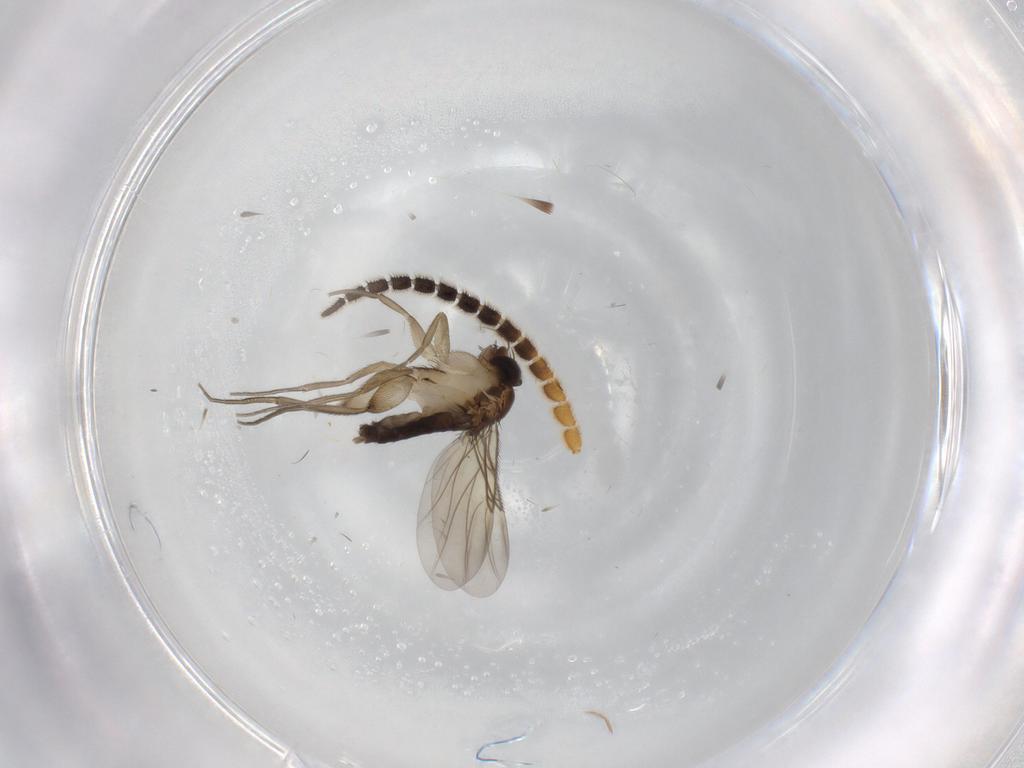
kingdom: Animalia
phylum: Arthropoda
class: Insecta
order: Diptera
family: Phoridae
